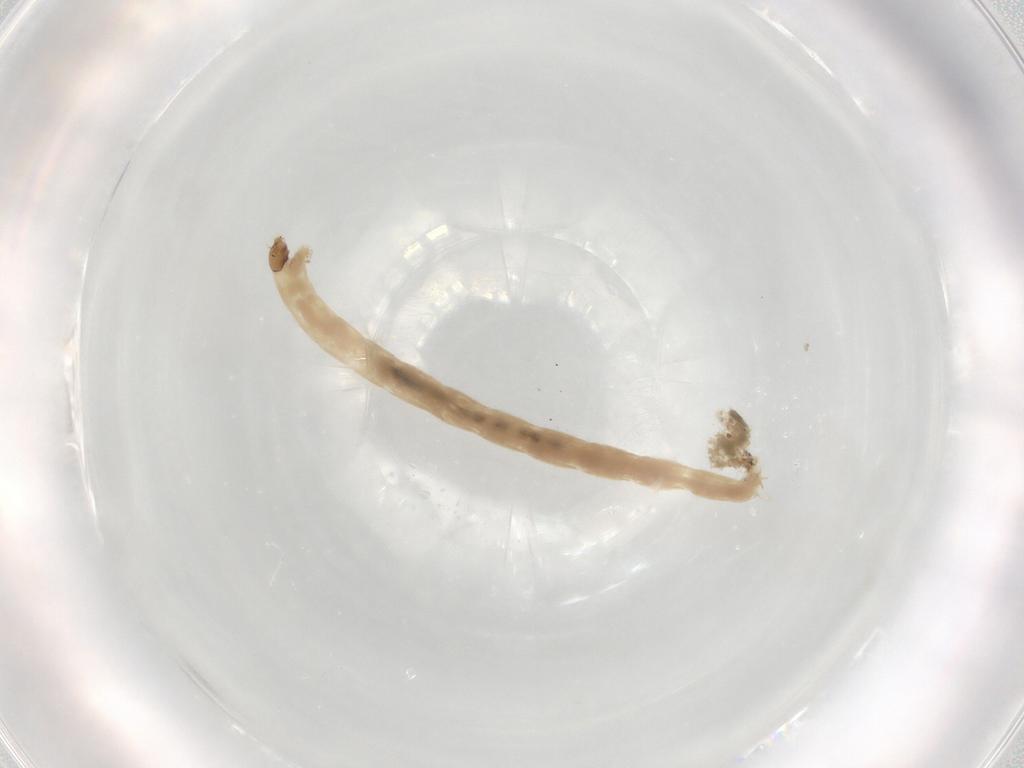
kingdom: Animalia
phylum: Arthropoda
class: Insecta
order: Diptera
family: Chironomidae
